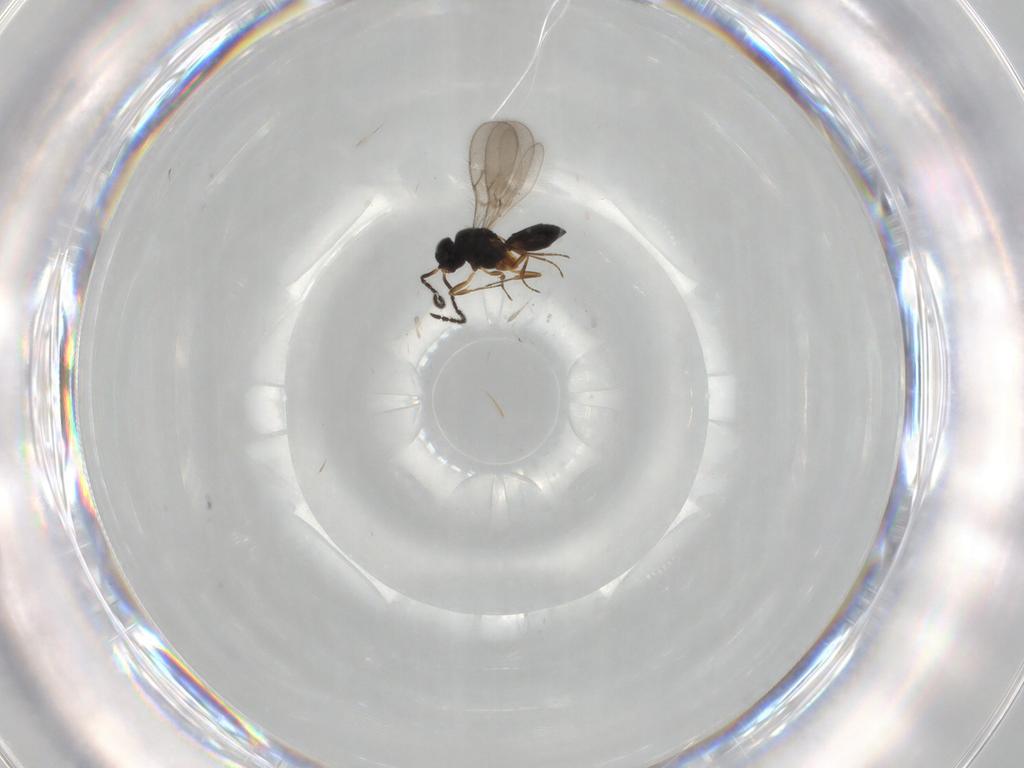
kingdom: Animalia
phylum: Arthropoda
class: Insecta
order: Hymenoptera
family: Scelionidae
